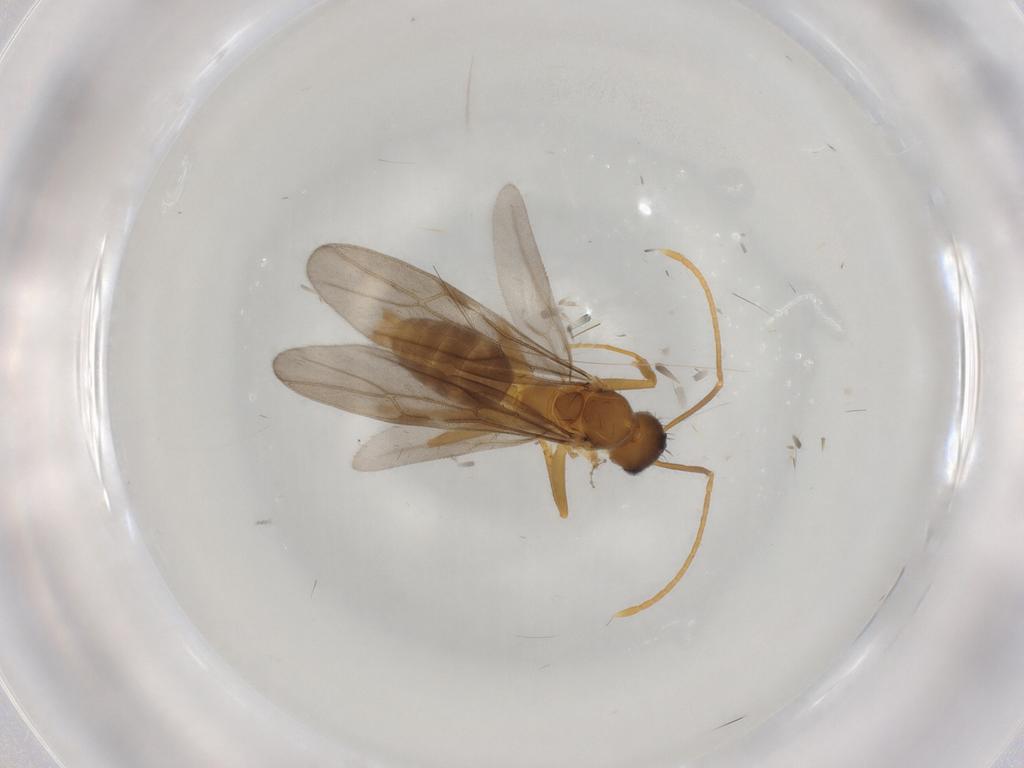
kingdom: Animalia
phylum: Arthropoda
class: Insecta
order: Hymenoptera
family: Formicidae
